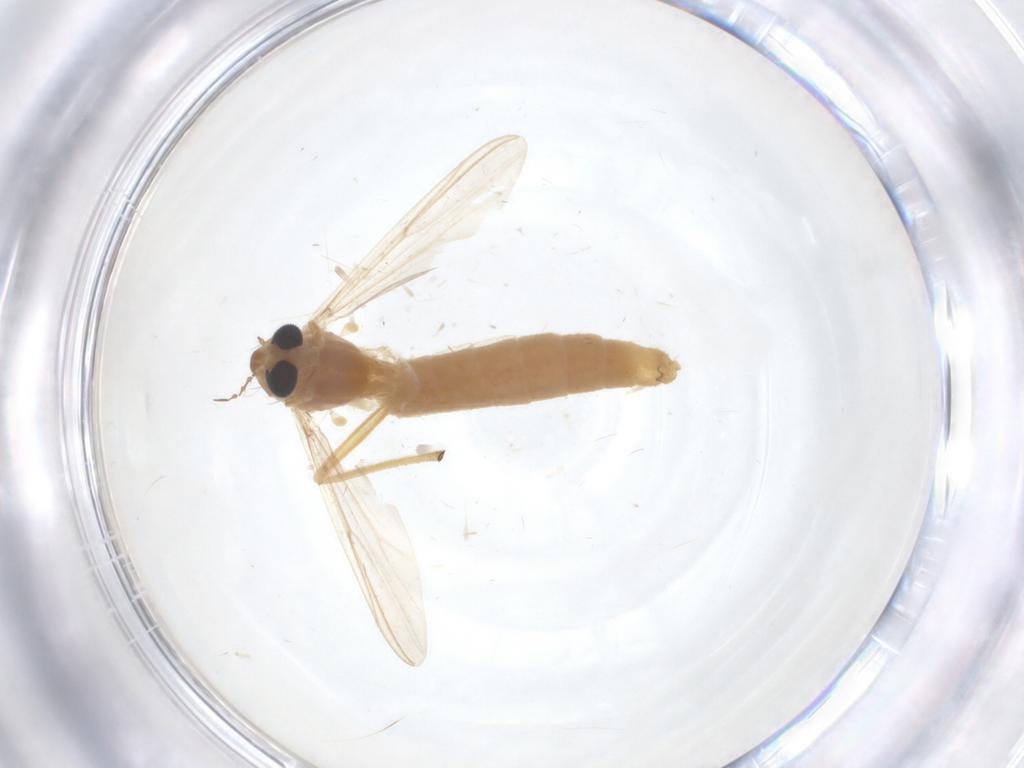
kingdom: Animalia
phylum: Arthropoda
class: Insecta
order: Diptera
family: Chironomidae
